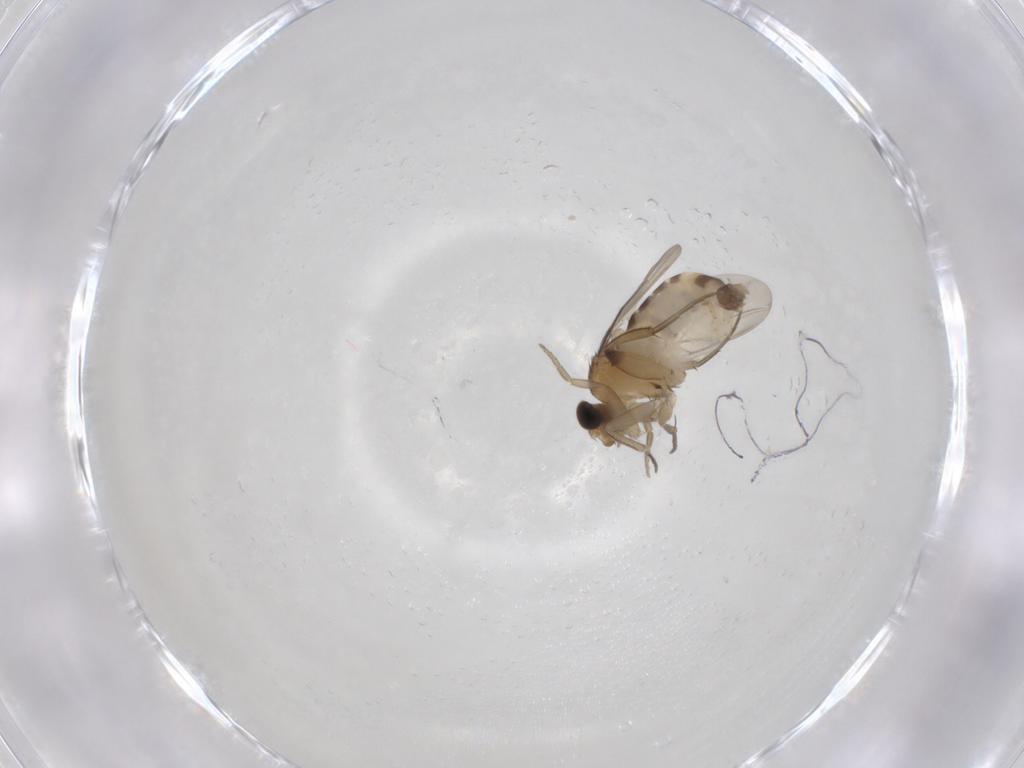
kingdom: Animalia
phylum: Arthropoda
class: Insecta
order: Diptera
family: Phoridae
